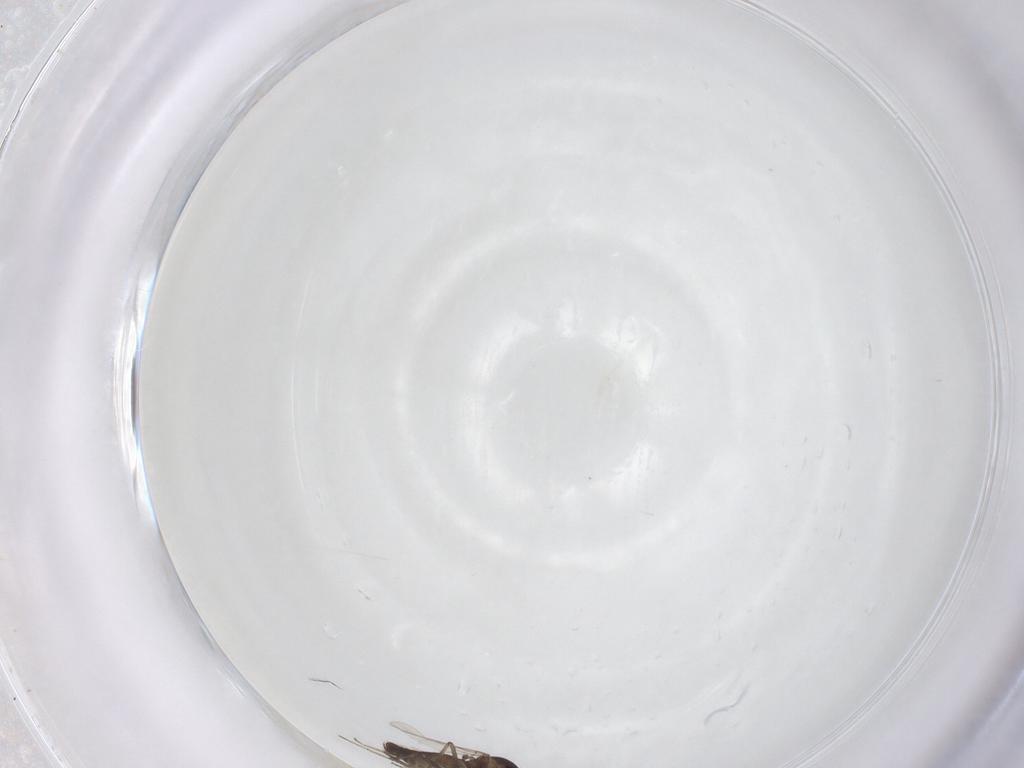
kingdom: Animalia
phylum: Arthropoda
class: Insecta
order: Diptera
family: Ceratopogonidae
